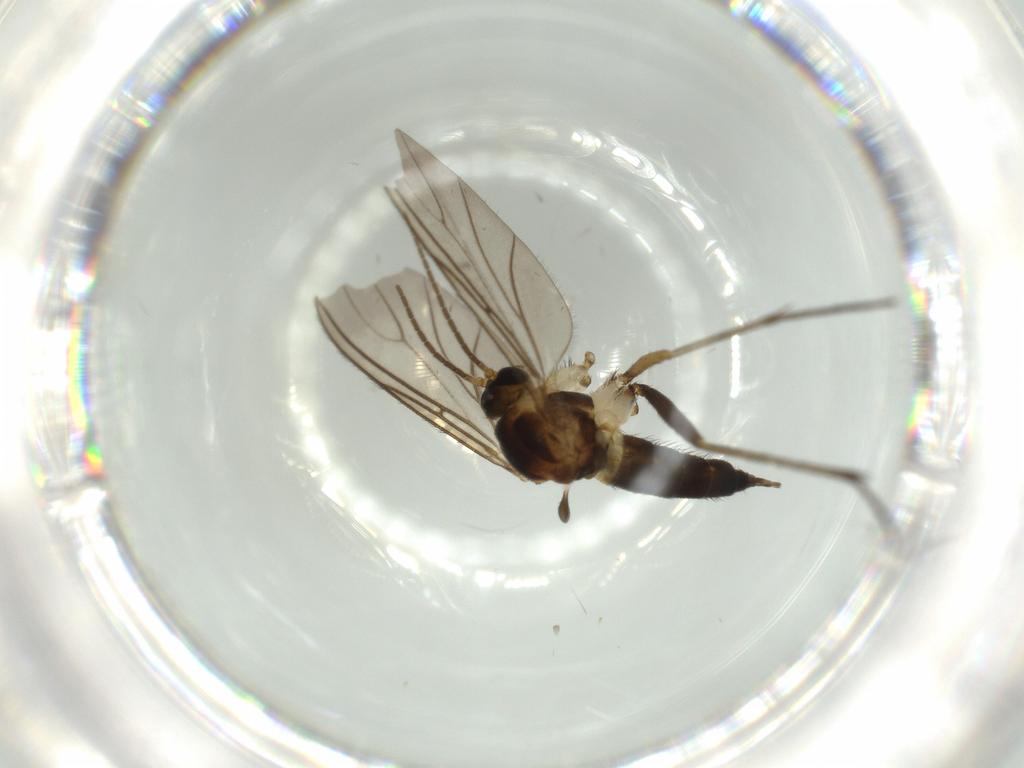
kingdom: Animalia
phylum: Arthropoda
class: Insecta
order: Diptera
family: Sciaridae
